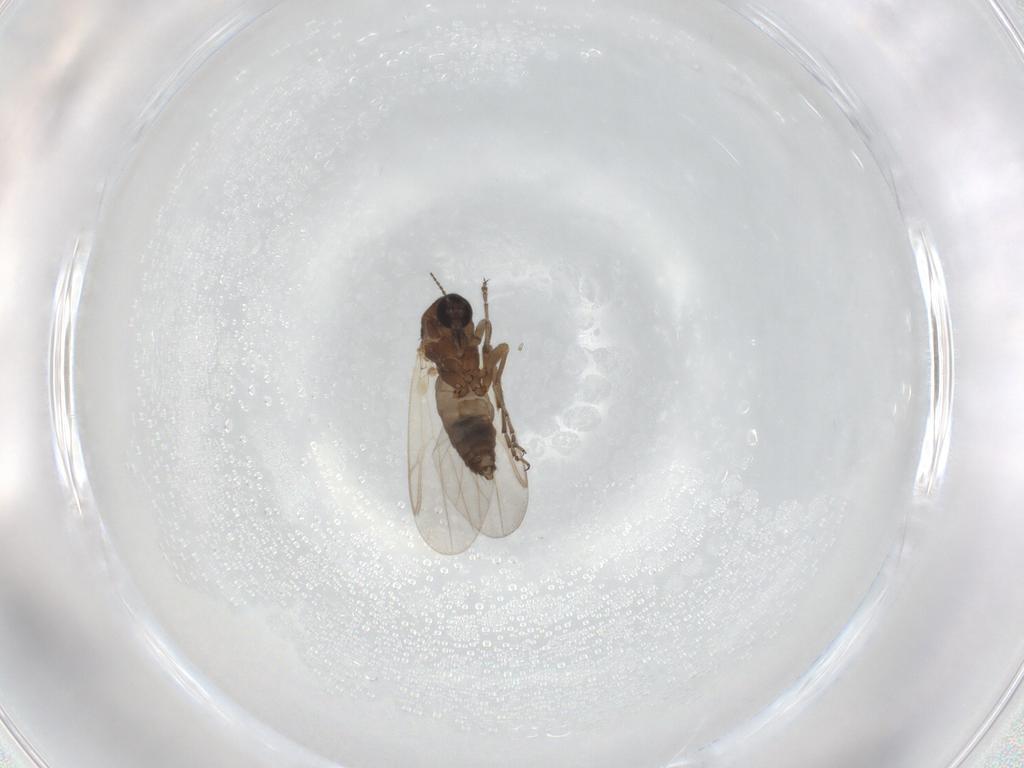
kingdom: Animalia
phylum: Arthropoda
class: Insecta
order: Diptera
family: Ceratopogonidae
